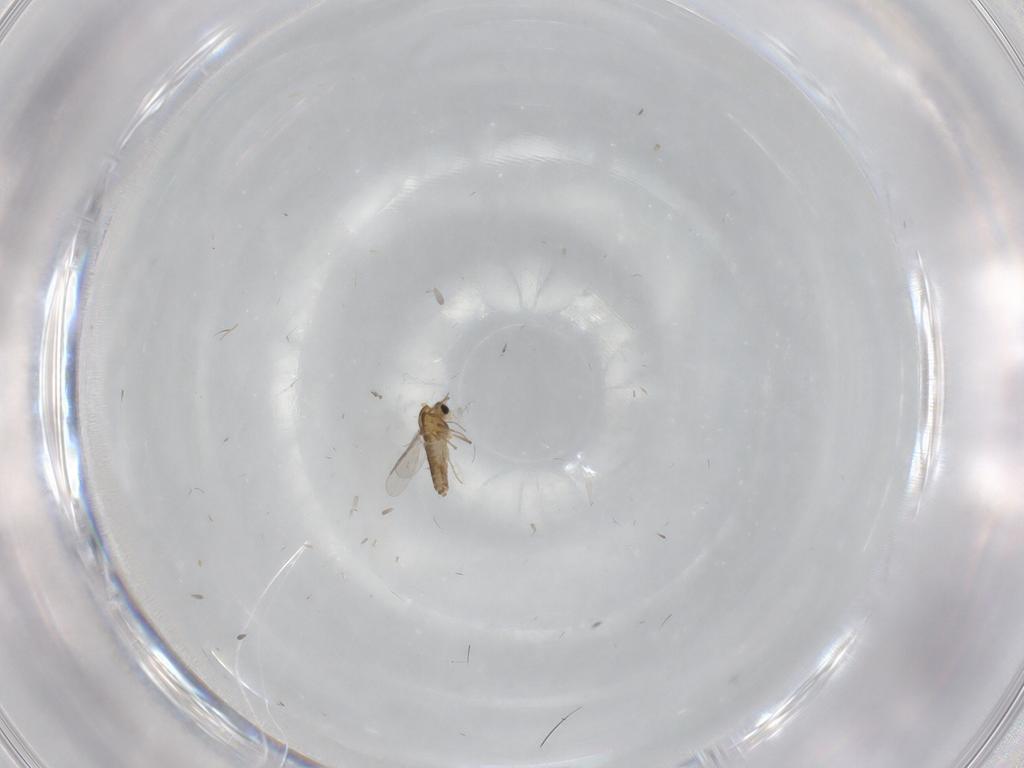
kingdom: Animalia
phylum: Arthropoda
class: Insecta
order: Diptera
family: Chironomidae
